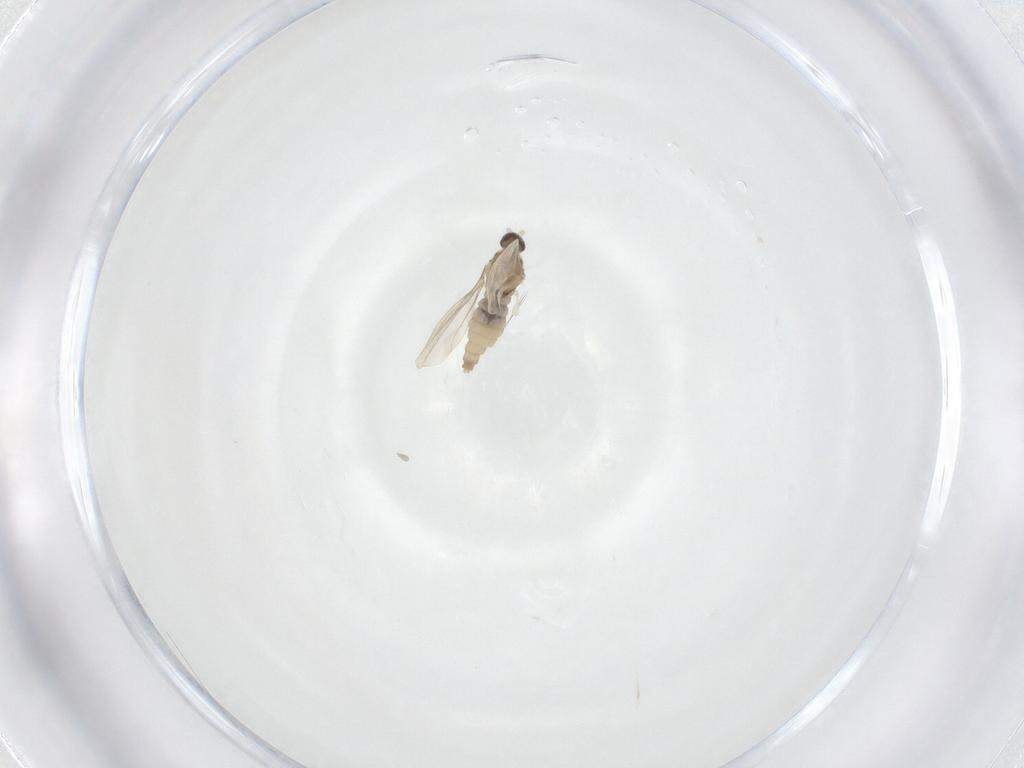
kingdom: Animalia
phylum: Arthropoda
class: Insecta
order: Diptera
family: Cecidomyiidae
